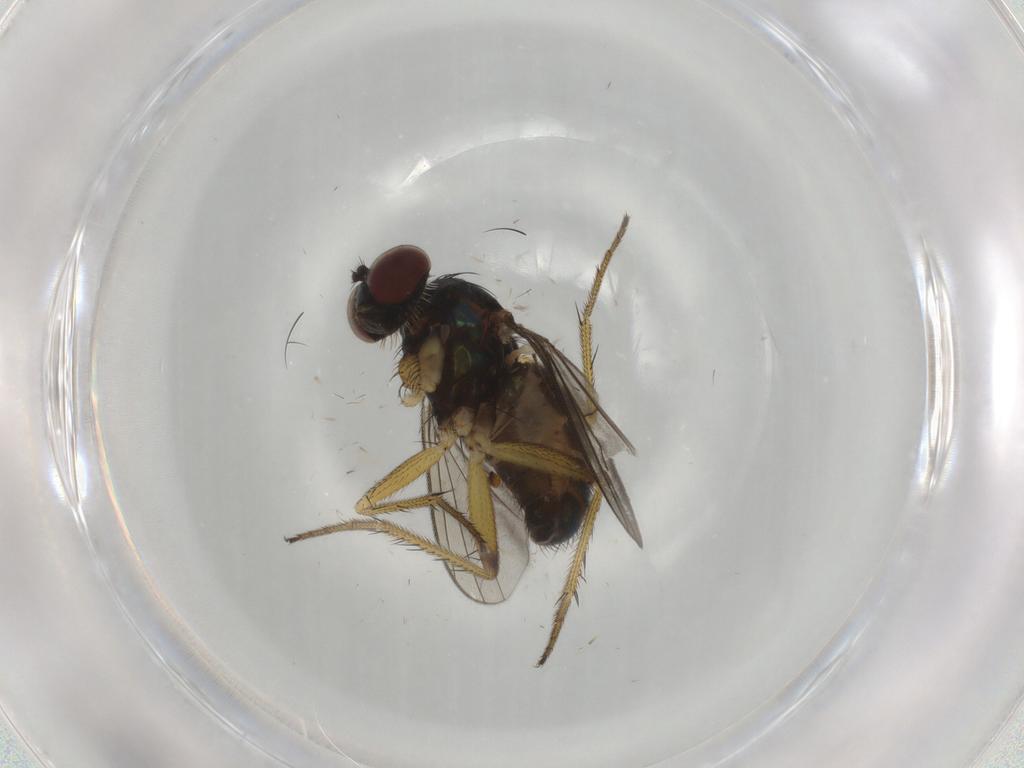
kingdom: Animalia
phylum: Arthropoda
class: Insecta
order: Diptera
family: Dolichopodidae
